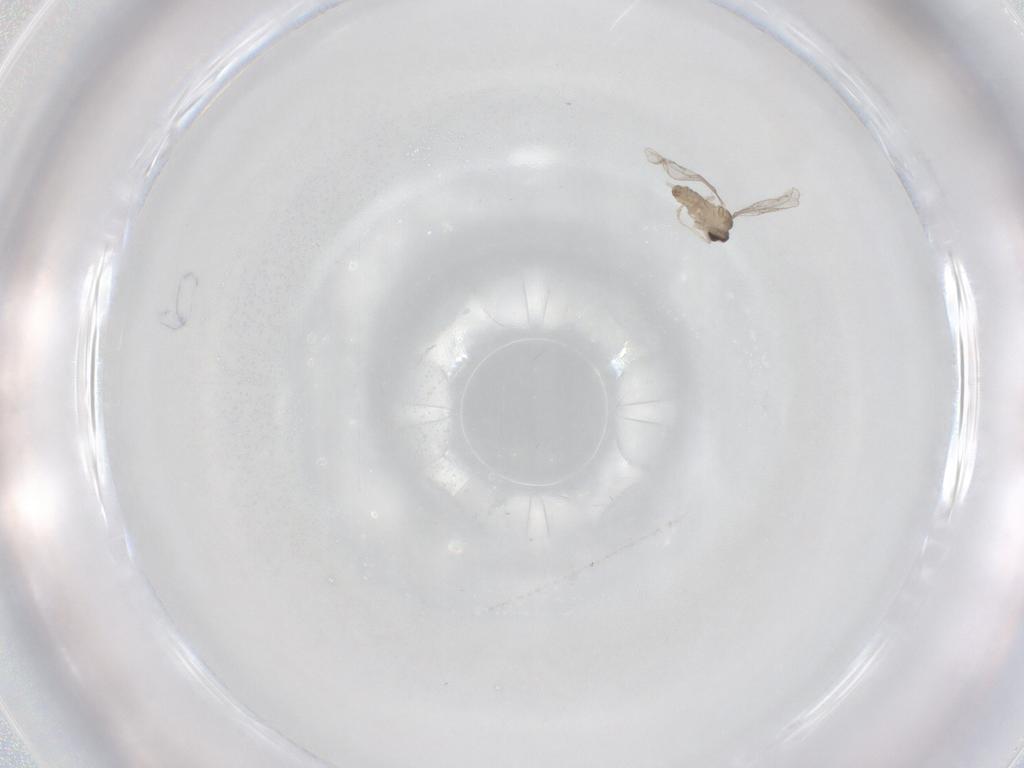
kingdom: Animalia
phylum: Arthropoda
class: Insecta
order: Diptera
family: Cecidomyiidae
